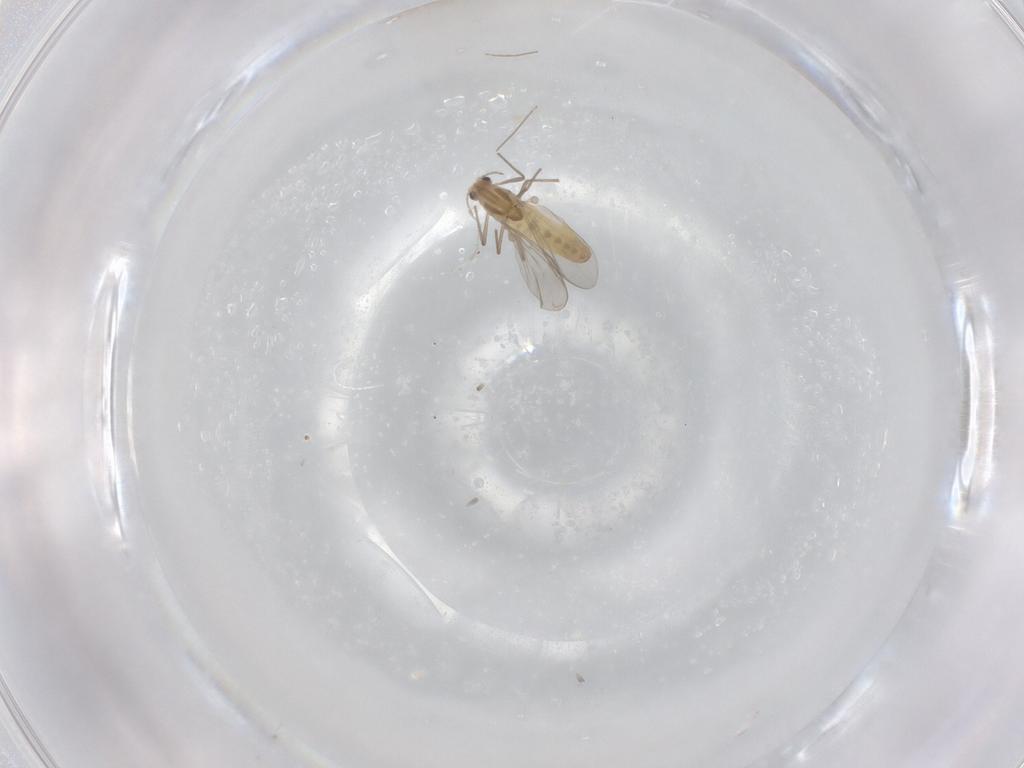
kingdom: Animalia
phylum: Arthropoda
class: Insecta
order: Diptera
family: Chironomidae
